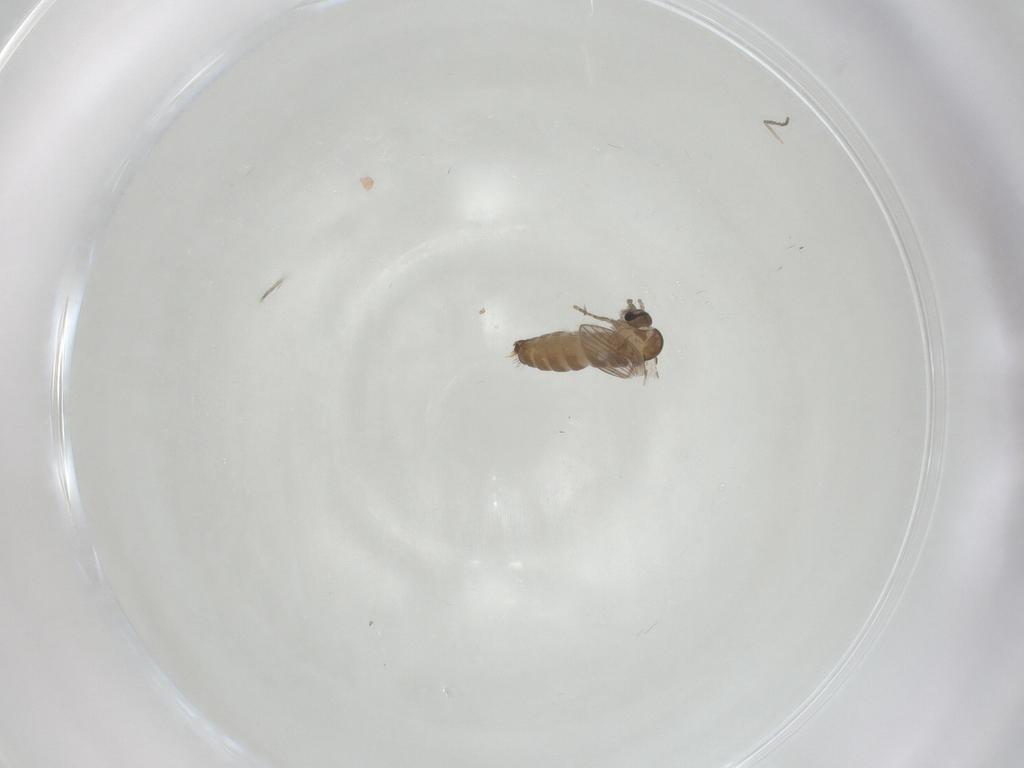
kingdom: Animalia
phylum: Arthropoda
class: Insecta
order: Diptera
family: Psychodidae
